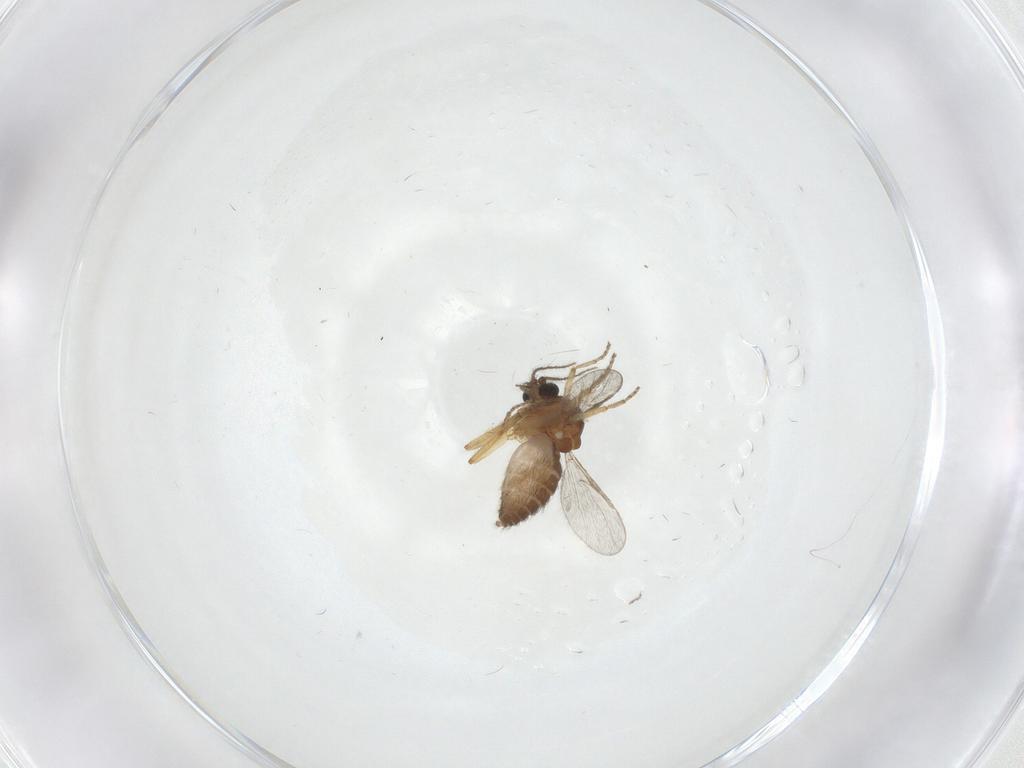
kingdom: Animalia
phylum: Arthropoda
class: Insecta
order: Diptera
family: Ceratopogonidae
